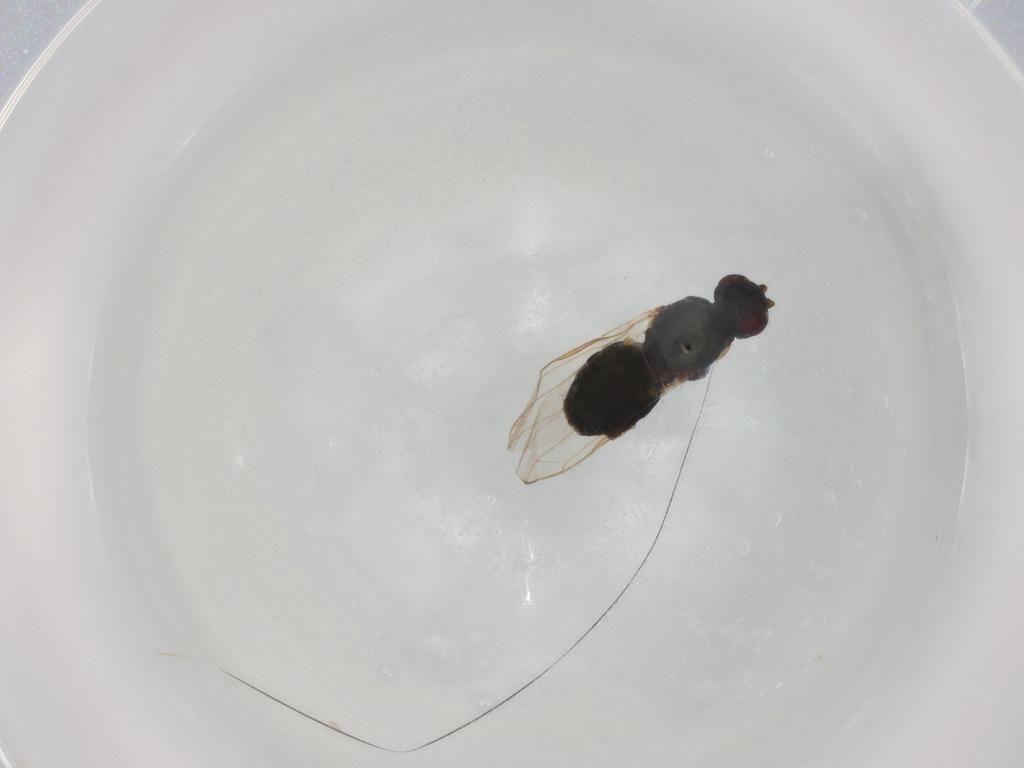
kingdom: Animalia
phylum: Arthropoda
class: Insecta
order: Diptera
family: Sphaeroceridae
